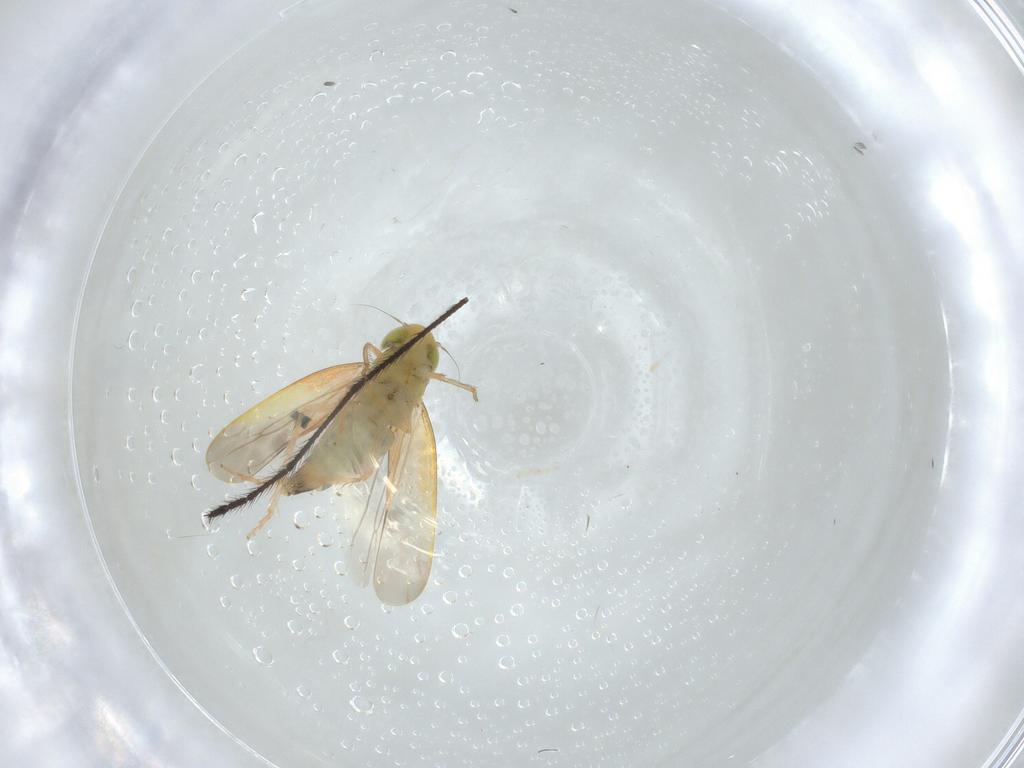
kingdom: Animalia
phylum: Arthropoda
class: Insecta
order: Hemiptera
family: Cicadellidae
